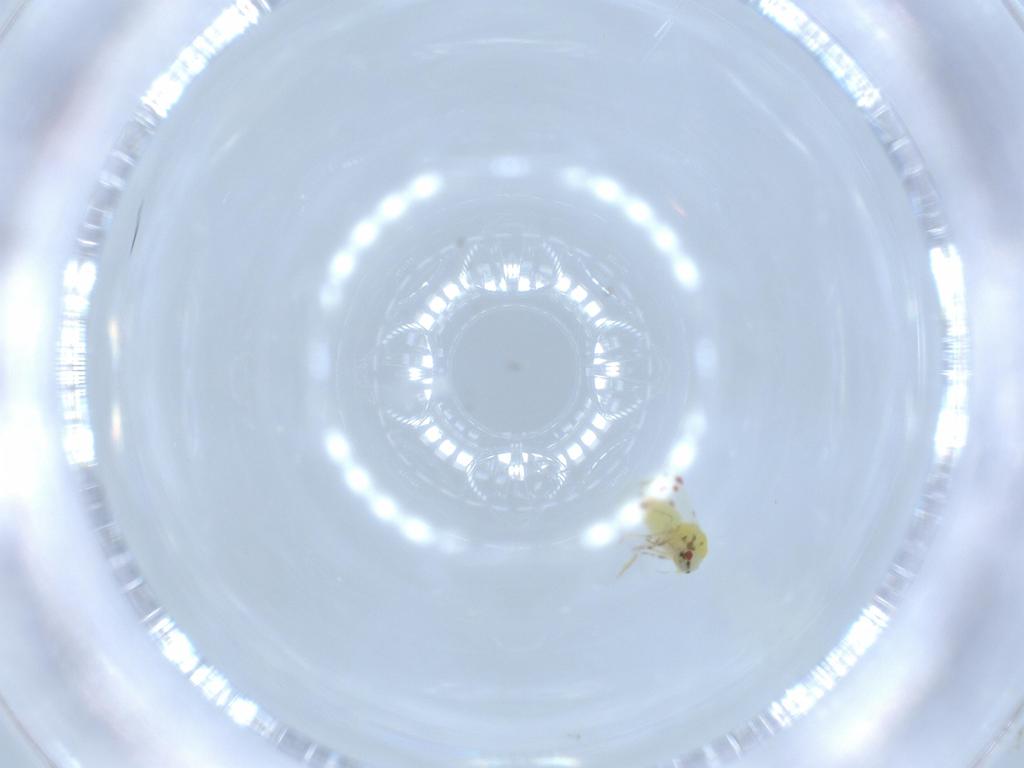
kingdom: Animalia
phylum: Arthropoda
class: Insecta
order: Hemiptera
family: Aleyrodidae
